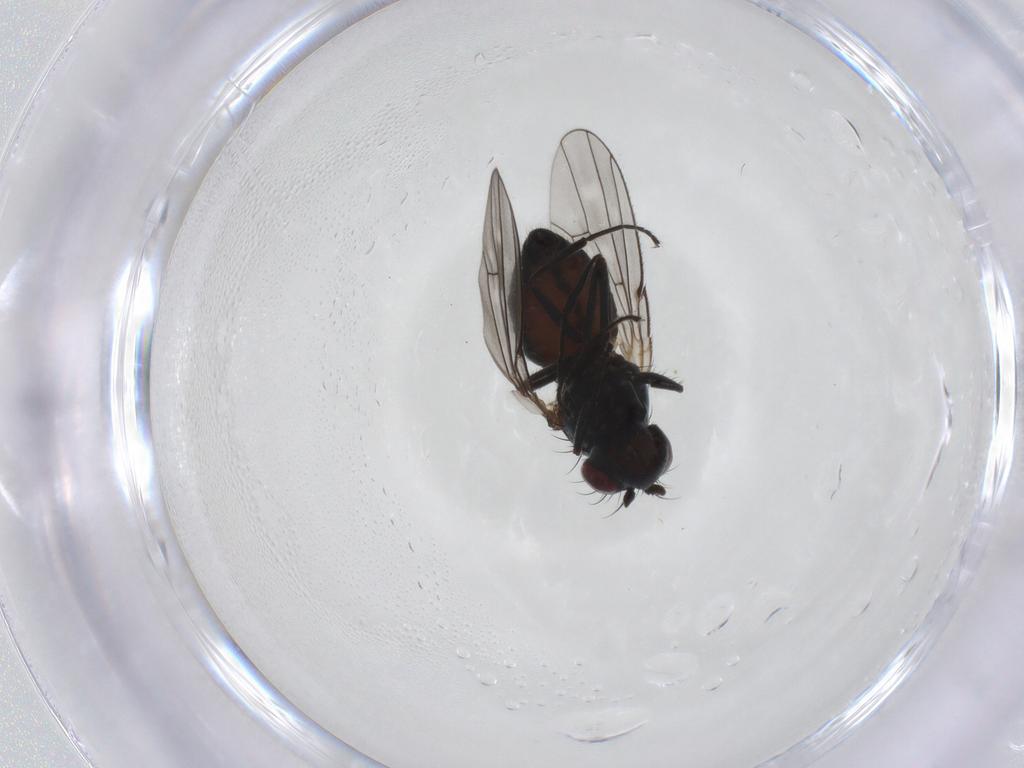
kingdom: Animalia
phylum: Arthropoda
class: Insecta
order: Diptera
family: Ephydridae
